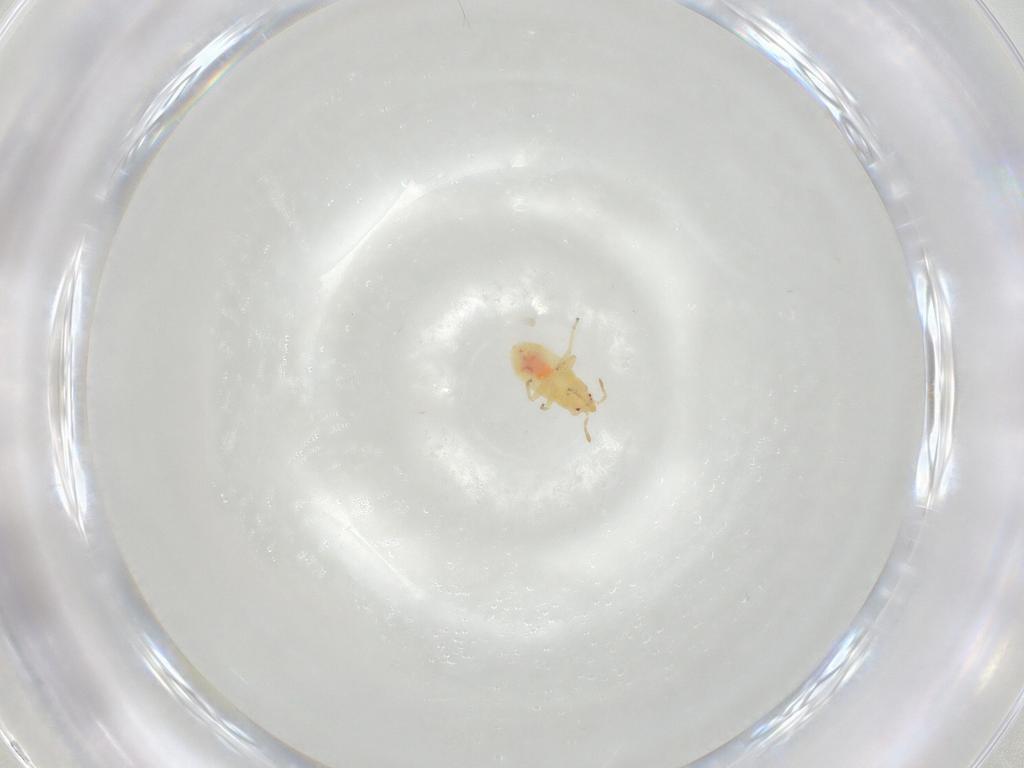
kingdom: Animalia
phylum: Arthropoda
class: Insecta
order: Hemiptera
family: Anthocoridae
